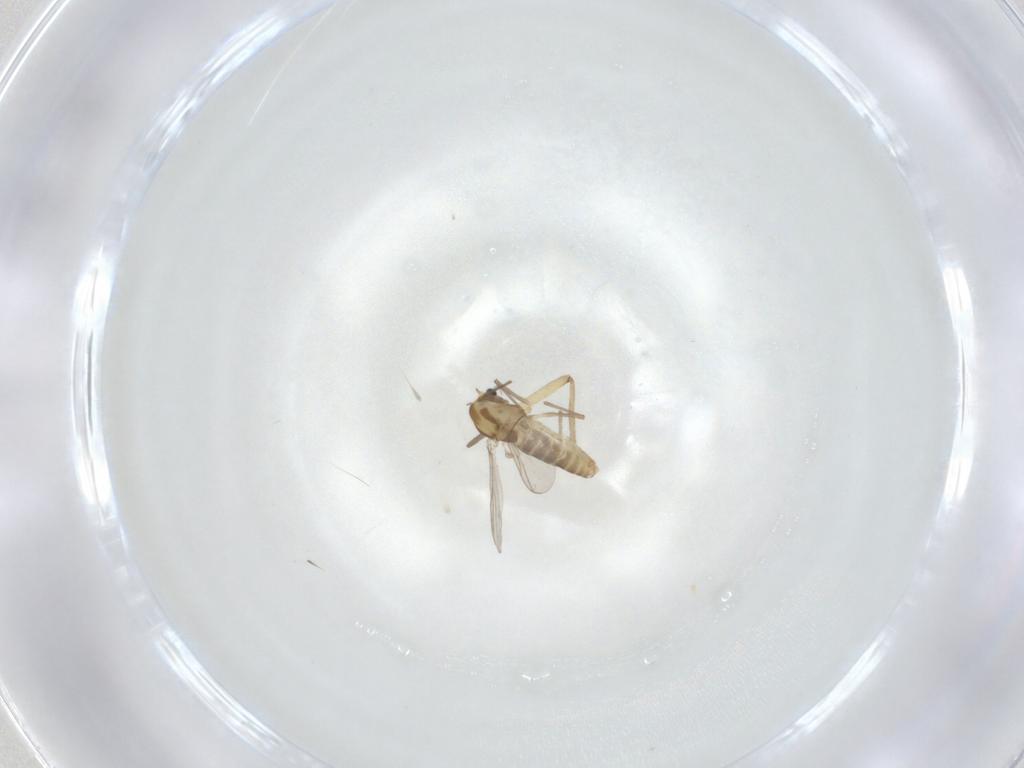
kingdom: Animalia
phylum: Arthropoda
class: Insecta
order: Diptera
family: Chironomidae
